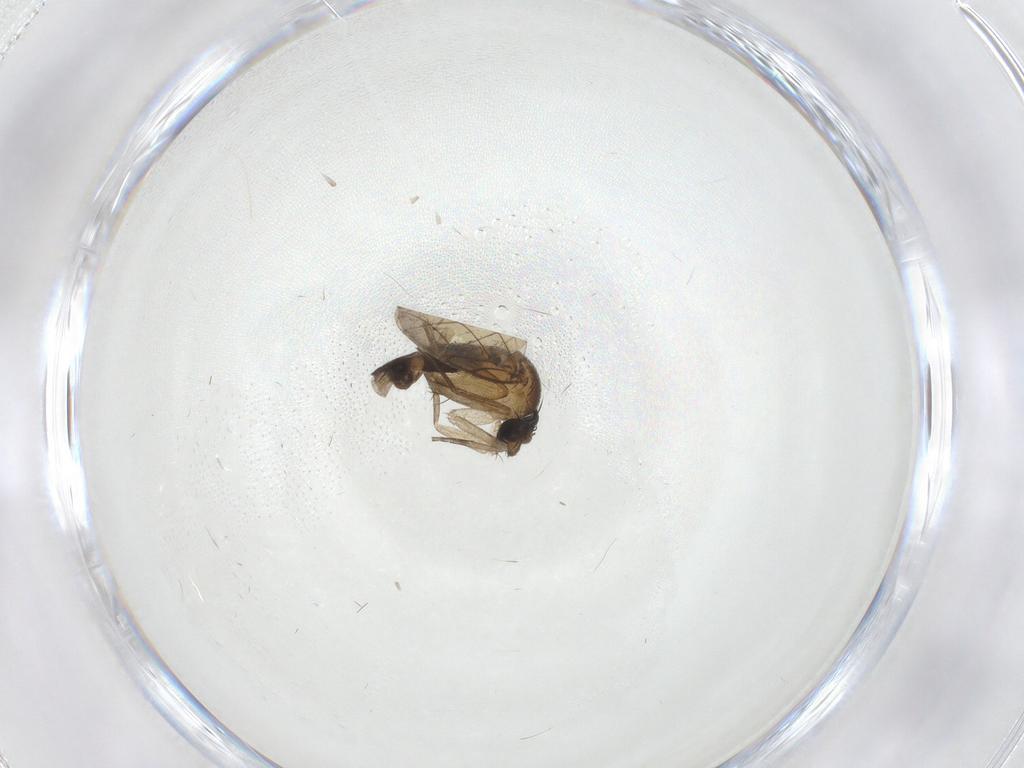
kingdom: Animalia
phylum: Arthropoda
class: Insecta
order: Diptera
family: Cecidomyiidae
